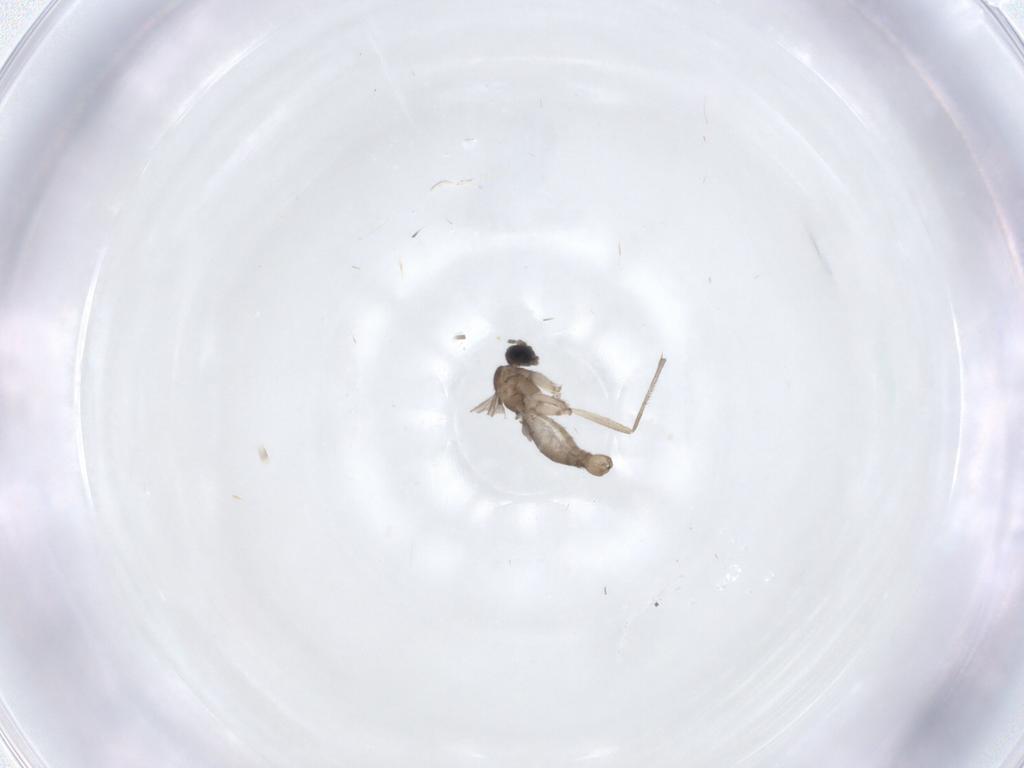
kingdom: Animalia
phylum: Arthropoda
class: Insecta
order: Diptera
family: Sciaridae
